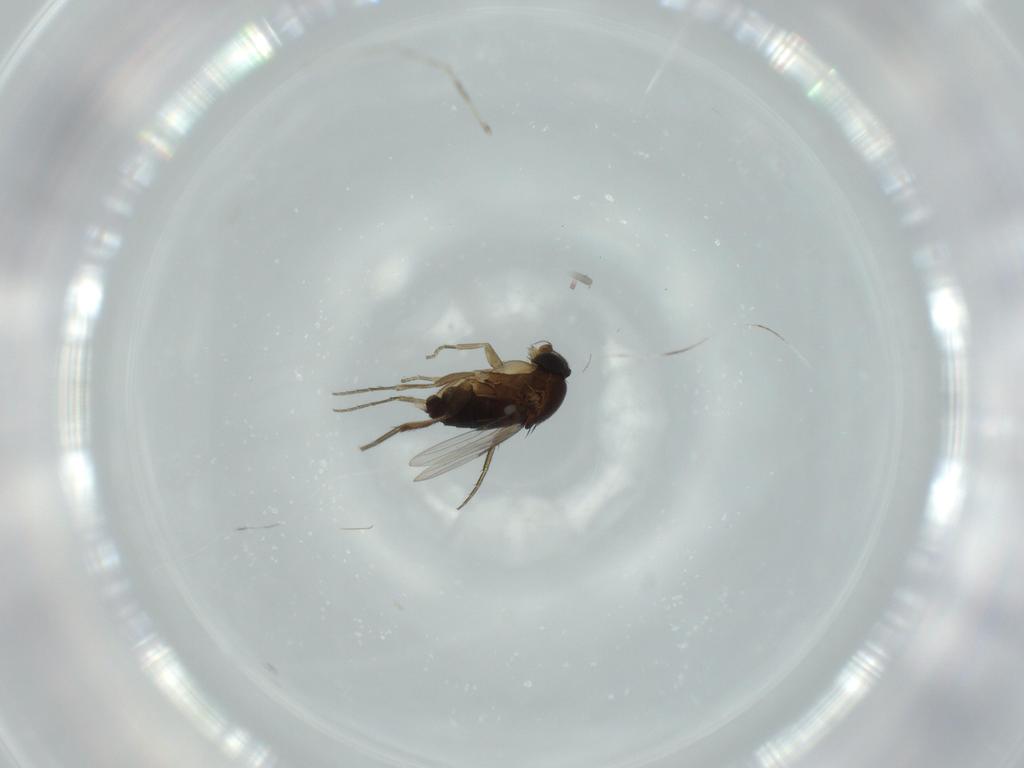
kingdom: Animalia
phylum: Arthropoda
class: Insecta
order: Diptera
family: Phoridae
